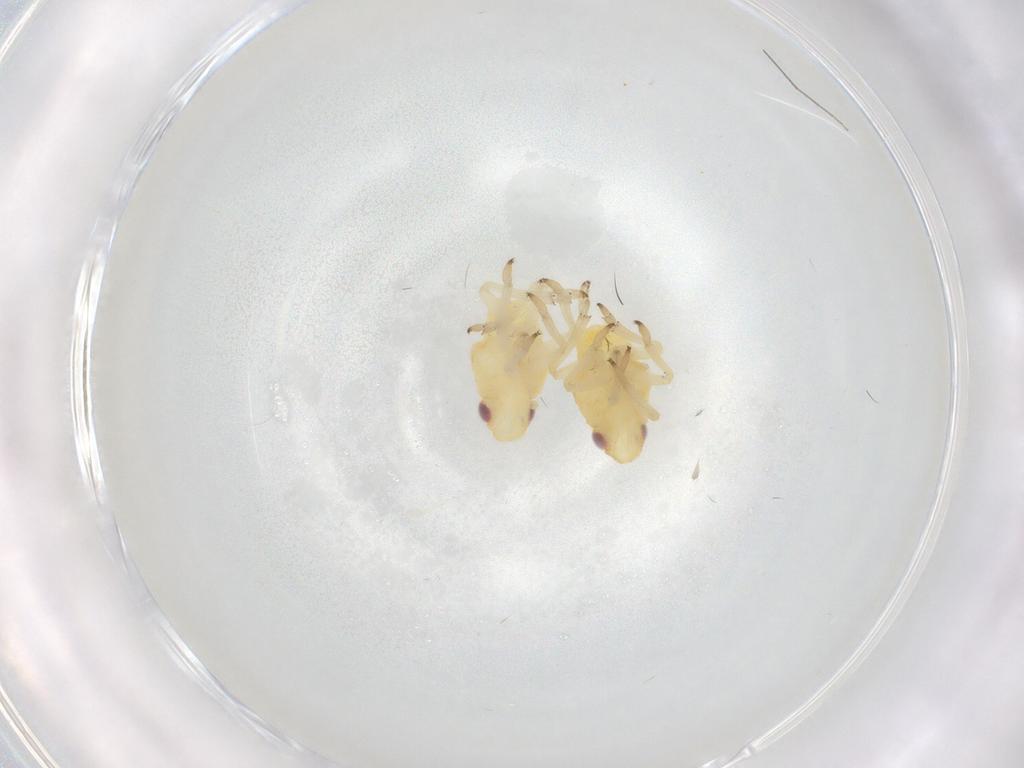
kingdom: Animalia
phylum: Arthropoda
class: Insecta
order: Diptera
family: Cecidomyiidae
